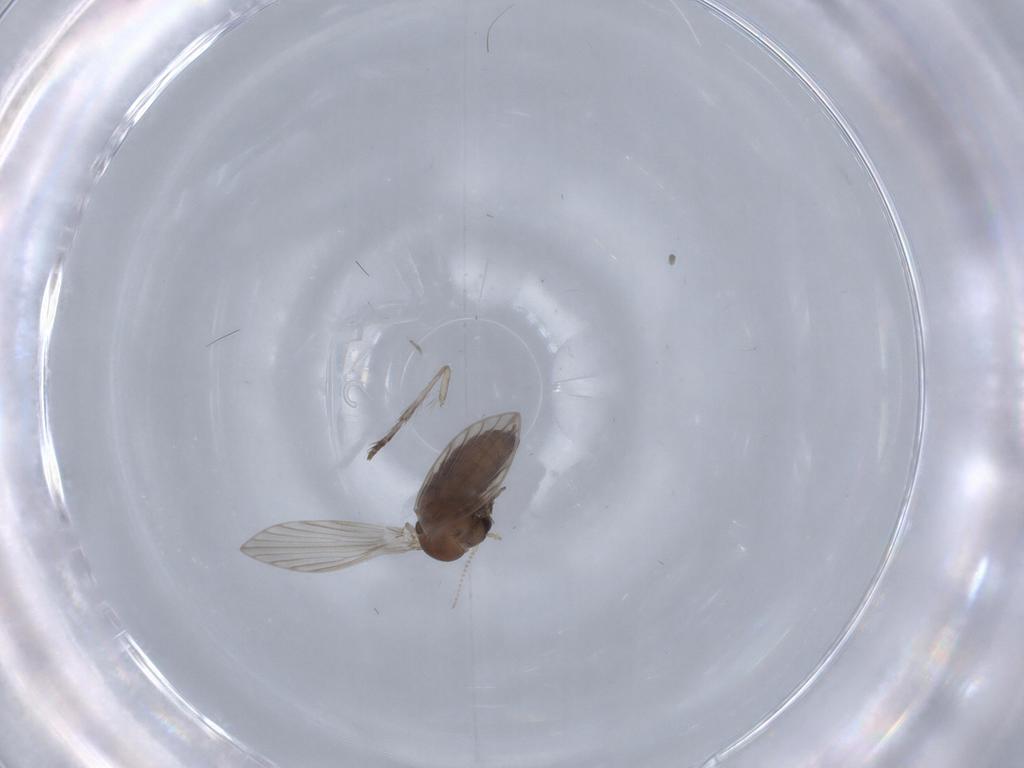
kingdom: Animalia
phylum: Arthropoda
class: Insecta
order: Diptera
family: Psychodidae
